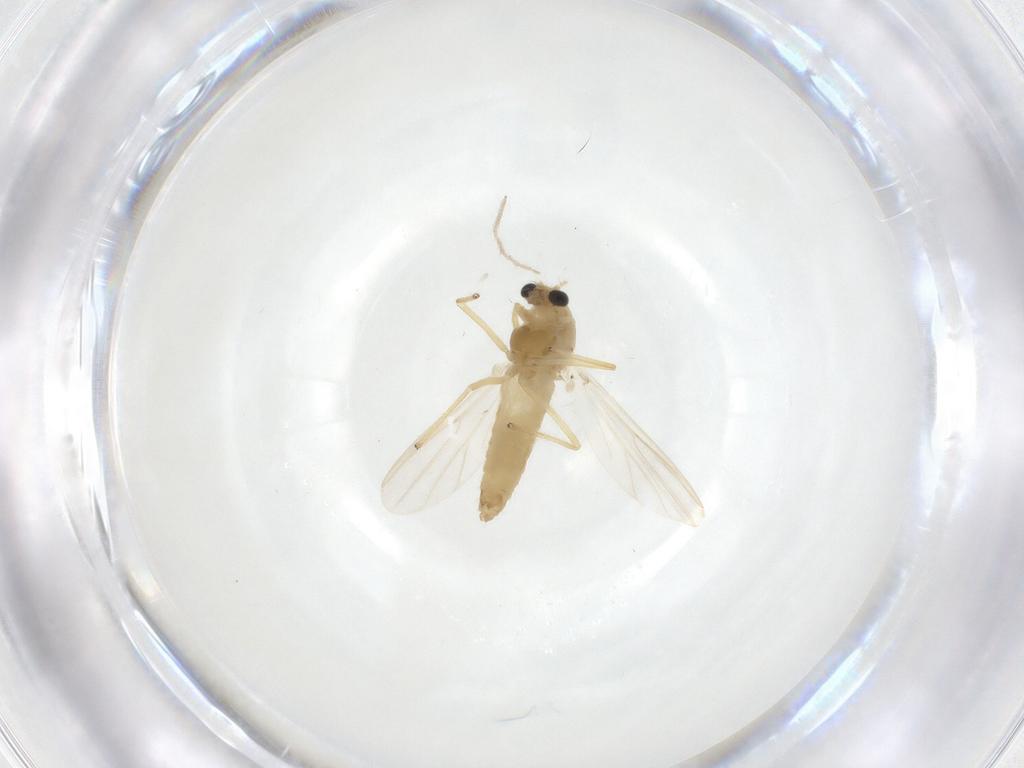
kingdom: Animalia
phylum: Arthropoda
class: Insecta
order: Diptera
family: Chironomidae
